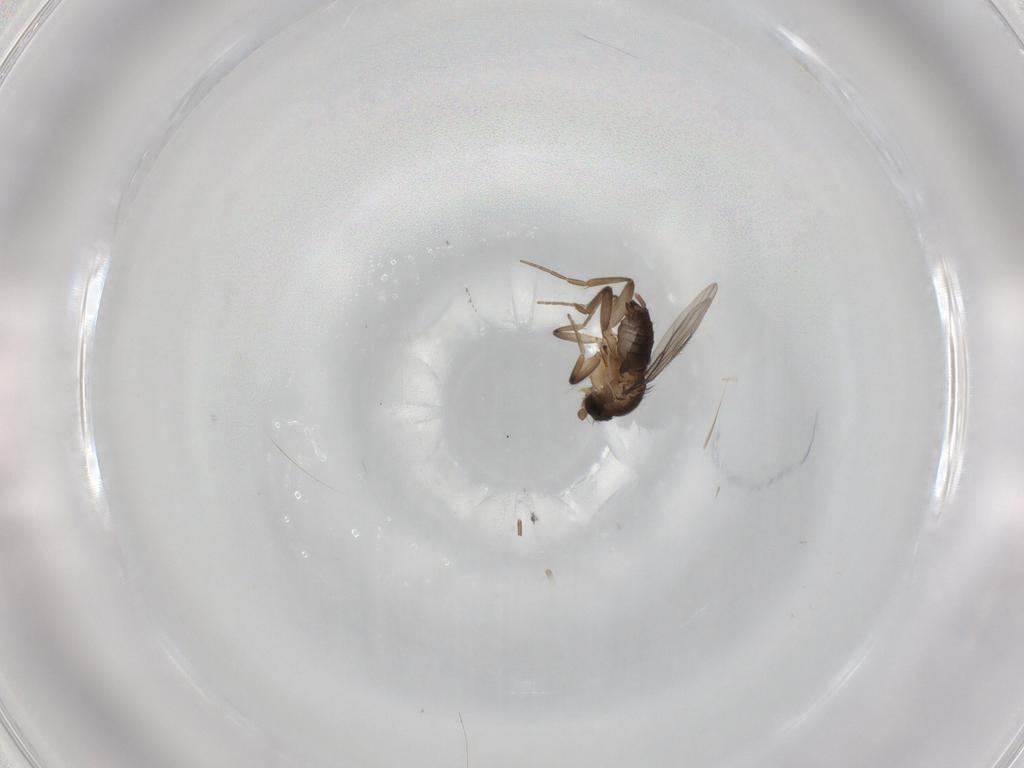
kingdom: Animalia
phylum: Arthropoda
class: Insecta
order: Diptera
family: Phoridae
